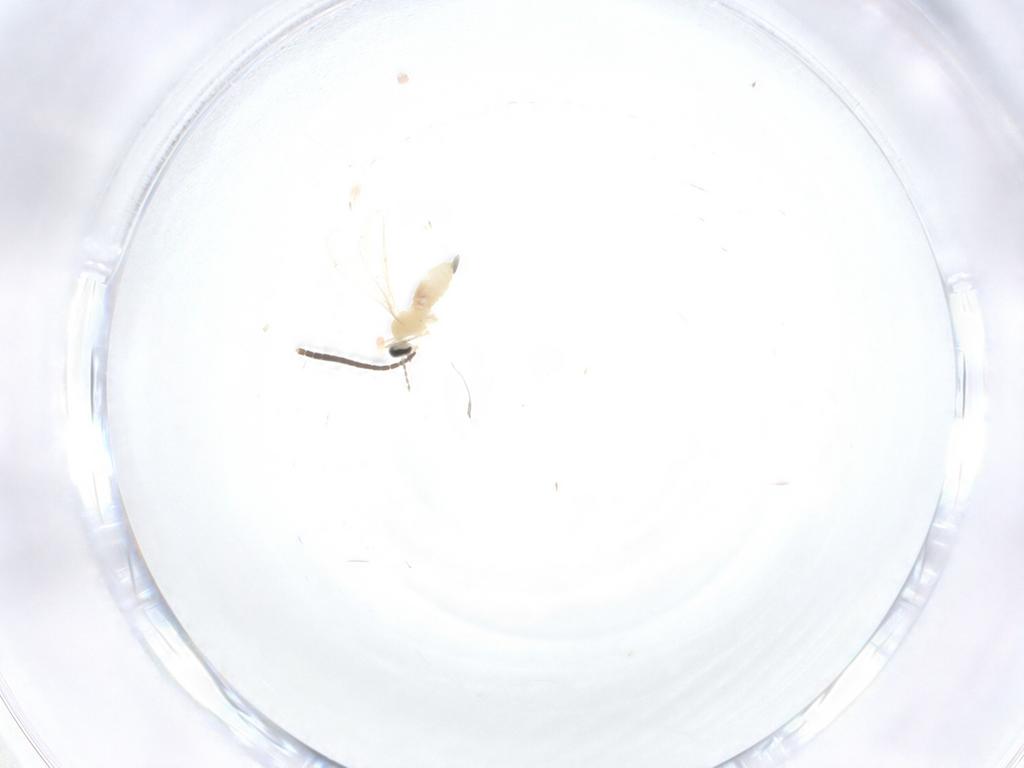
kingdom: Animalia
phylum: Arthropoda
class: Insecta
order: Diptera
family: Cecidomyiidae
